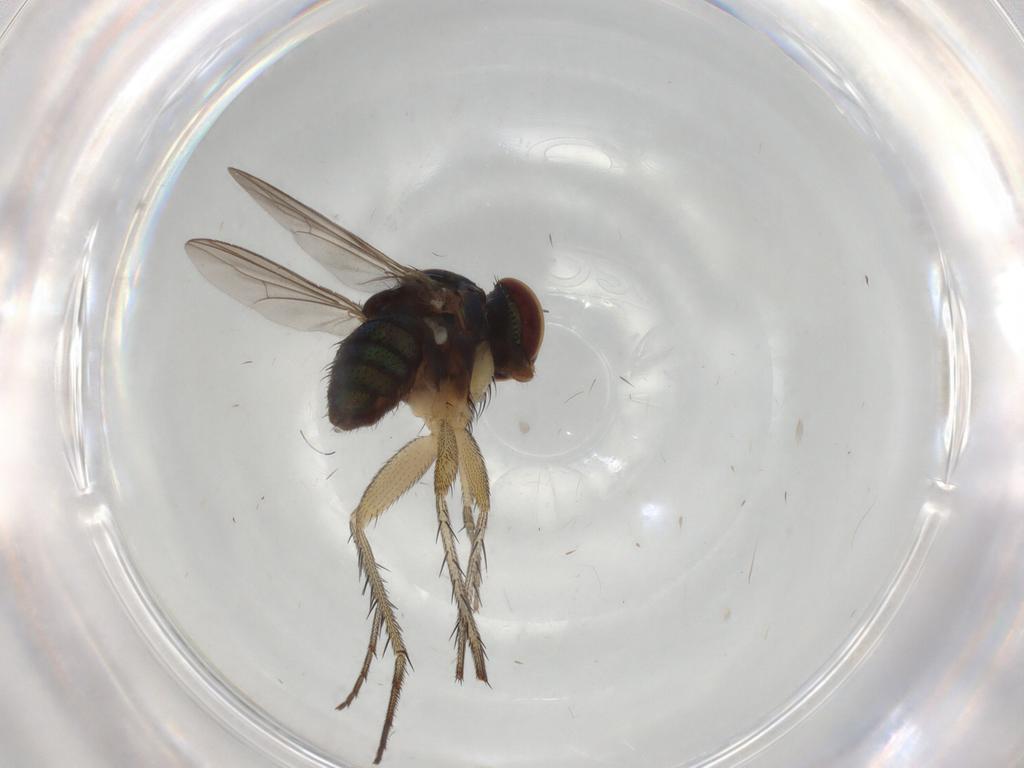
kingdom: Animalia
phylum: Arthropoda
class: Insecta
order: Diptera
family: Dolichopodidae
